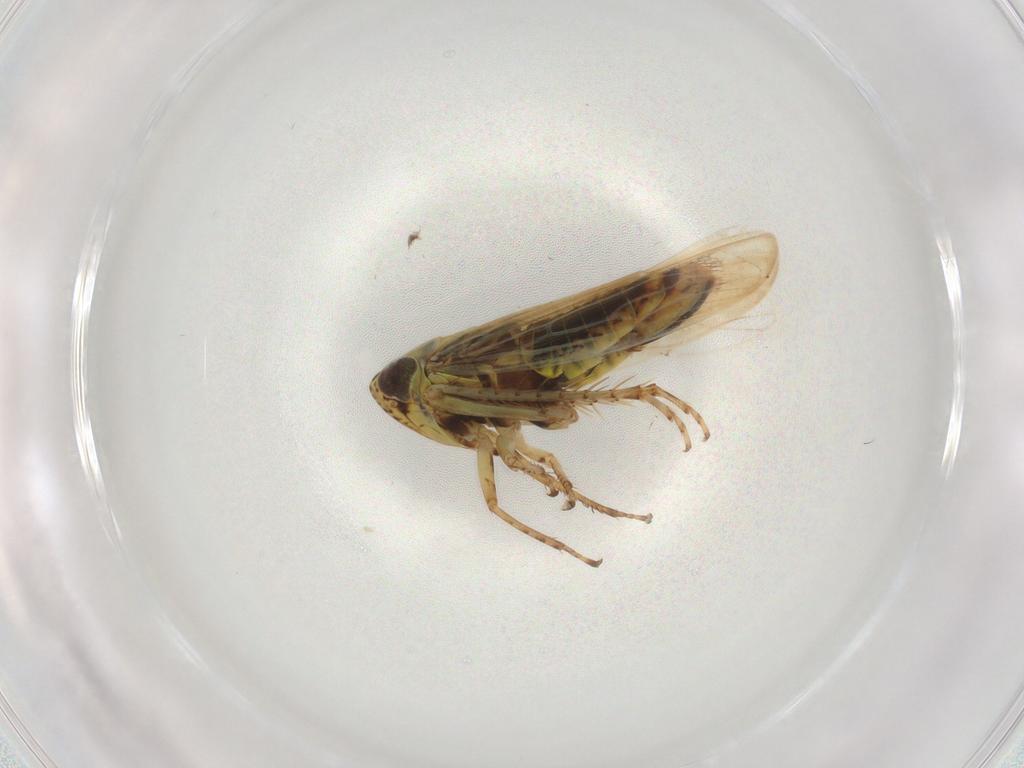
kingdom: Animalia
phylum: Arthropoda
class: Insecta
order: Hemiptera
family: Cicadellidae
